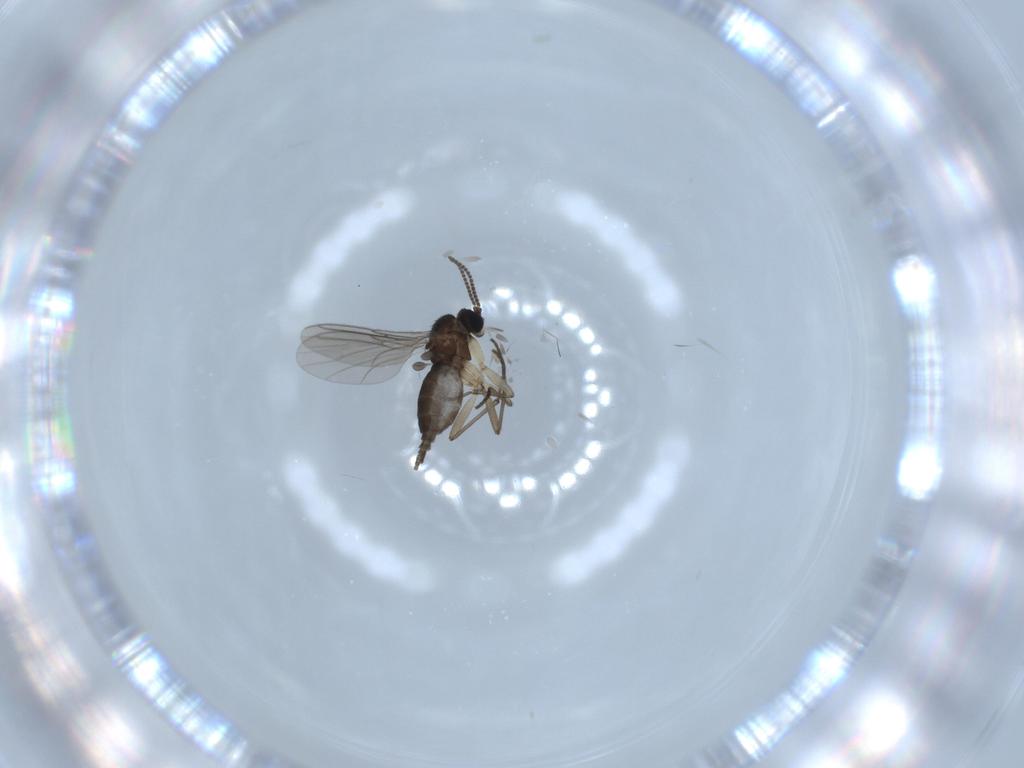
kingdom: Animalia
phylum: Arthropoda
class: Insecta
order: Diptera
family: Sciaridae
